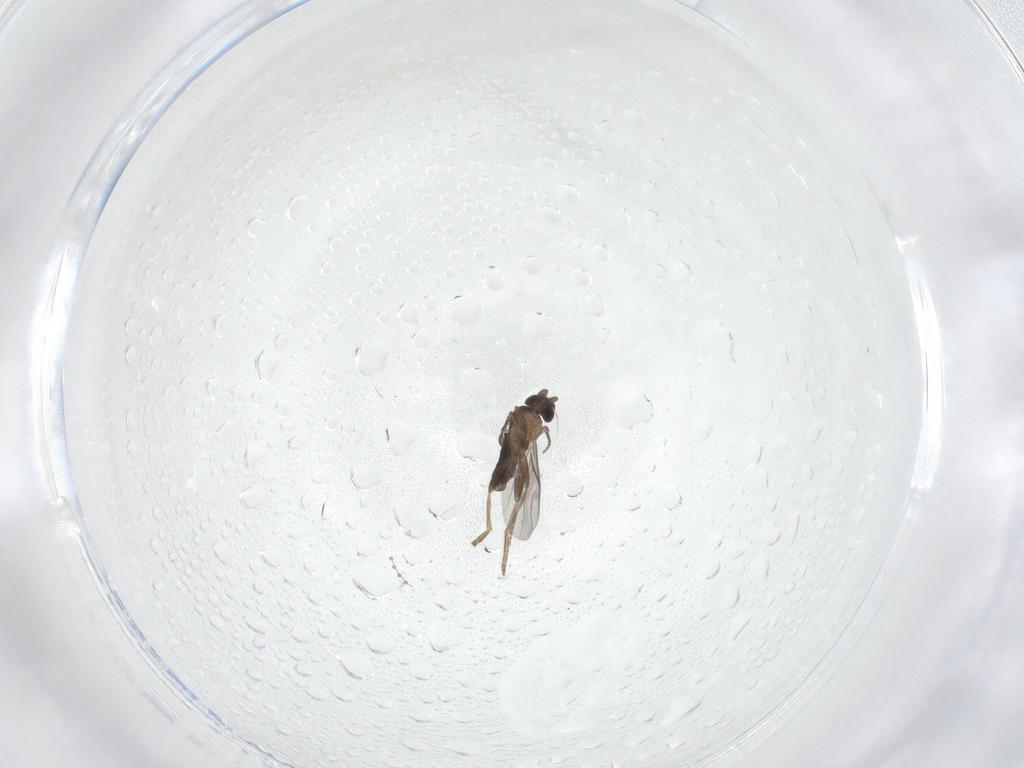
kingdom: Animalia
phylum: Arthropoda
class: Insecta
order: Diptera
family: Cecidomyiidae
